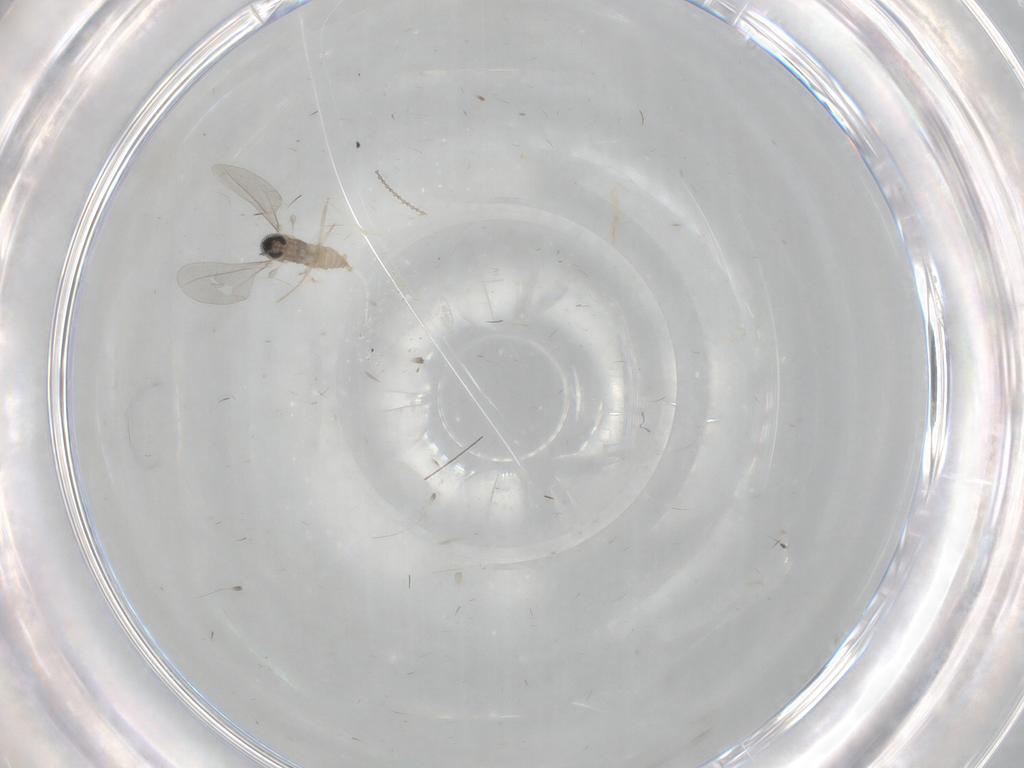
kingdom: Animalia
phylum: Arthropoda
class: Insecta
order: Diptera
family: Cecidomyiidae
